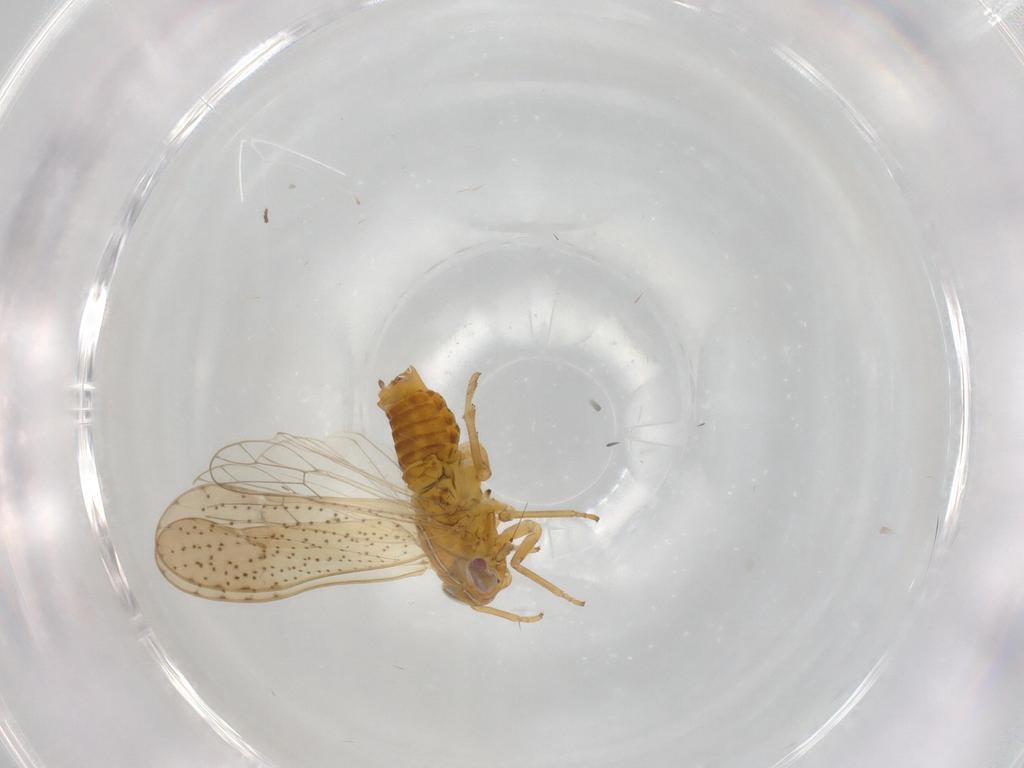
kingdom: Animalia
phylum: Arthropoda
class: Insecta
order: Hemiptera
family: Delphacidae
